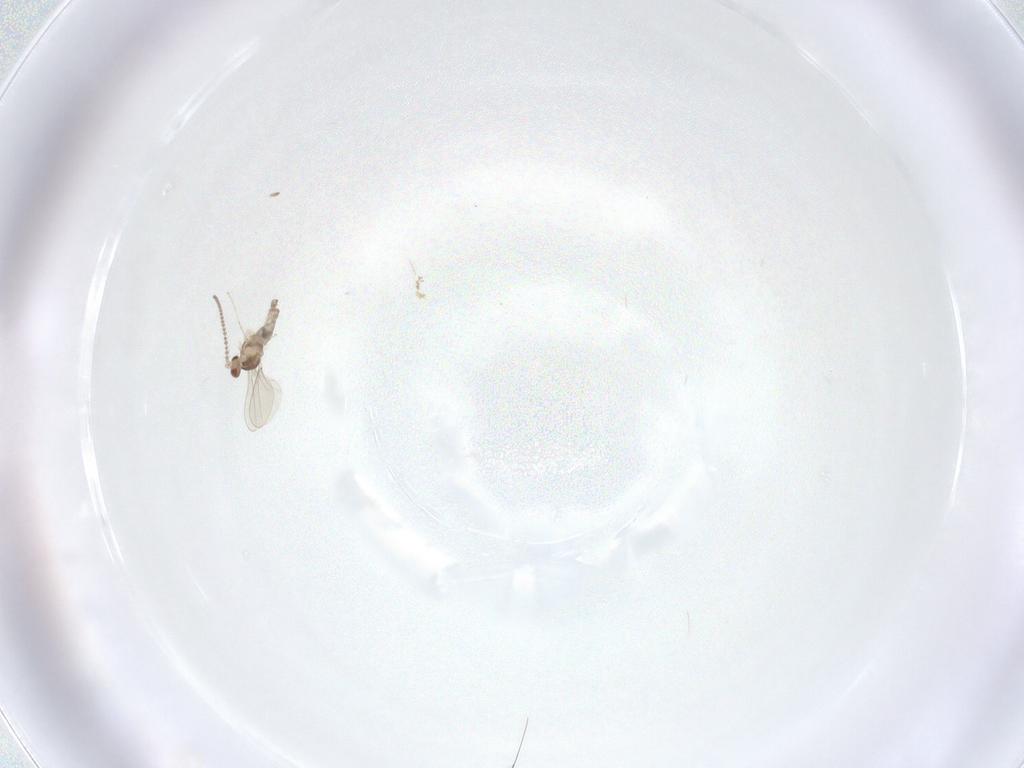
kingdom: Animalia
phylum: Arthropoda
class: Insecta
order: Diptera
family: Cecidomyiidae
